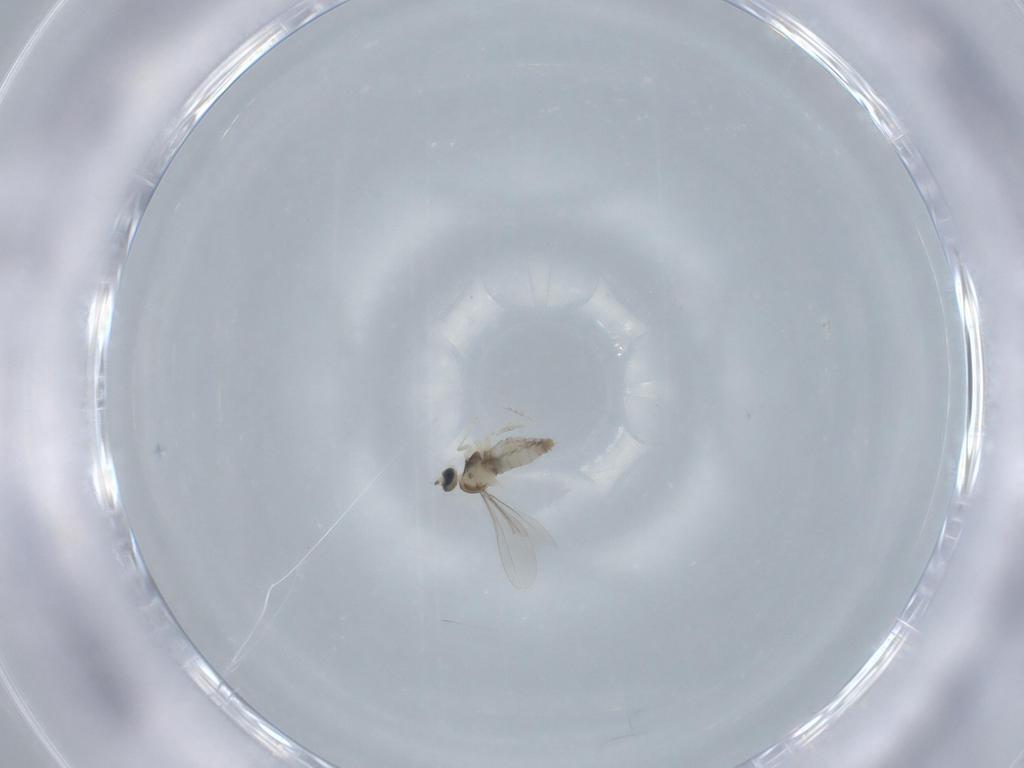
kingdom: Animalia
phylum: Arthropoda
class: Insecta
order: Diptera
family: Cecidomyiidae
